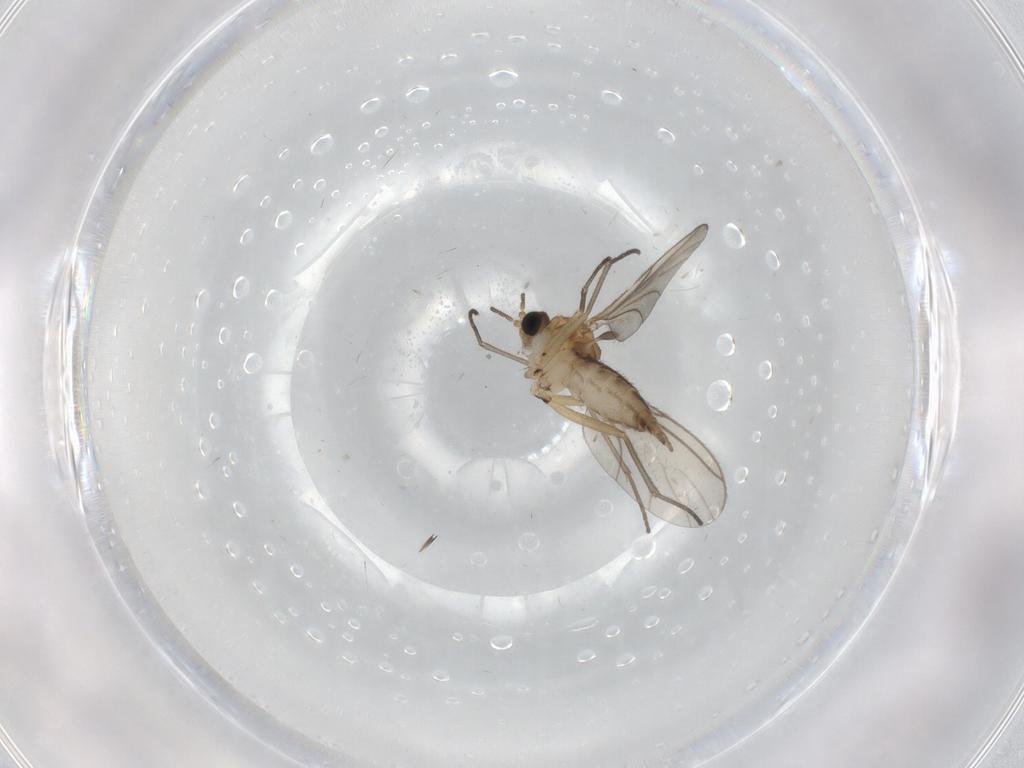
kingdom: Animalia
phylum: Arthropoda
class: Insecta
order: Diptera
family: Sciaridae
